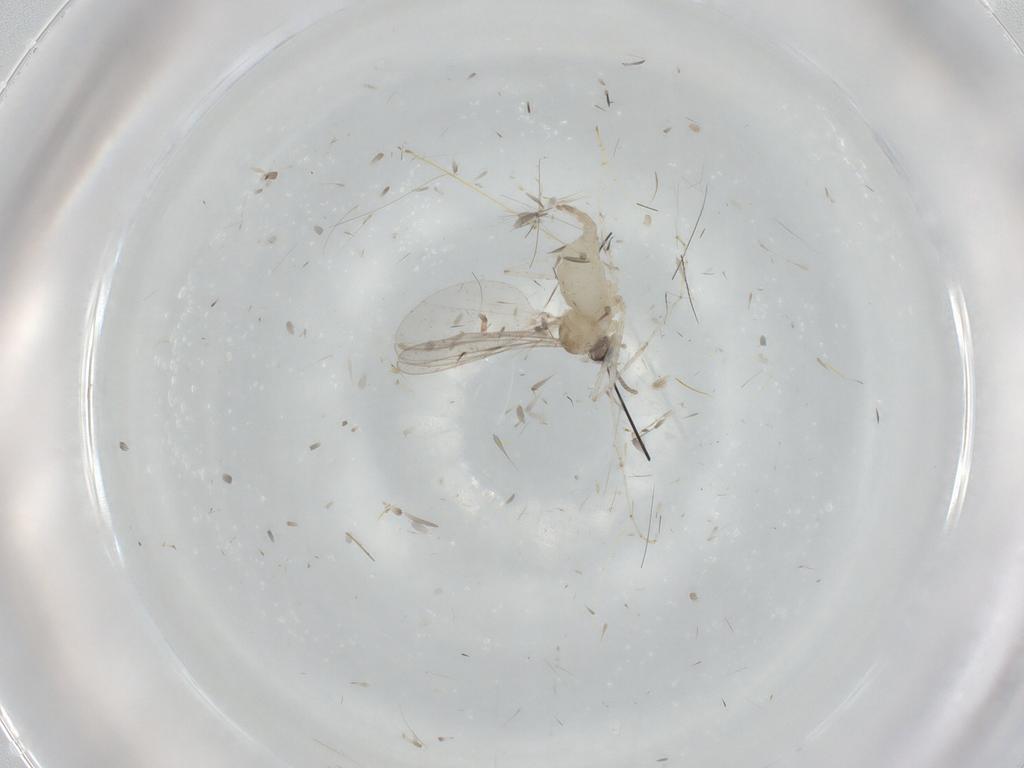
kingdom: Animalia
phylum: Arthropoda
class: Insecta
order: Diptera
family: Cecidomyiidae
